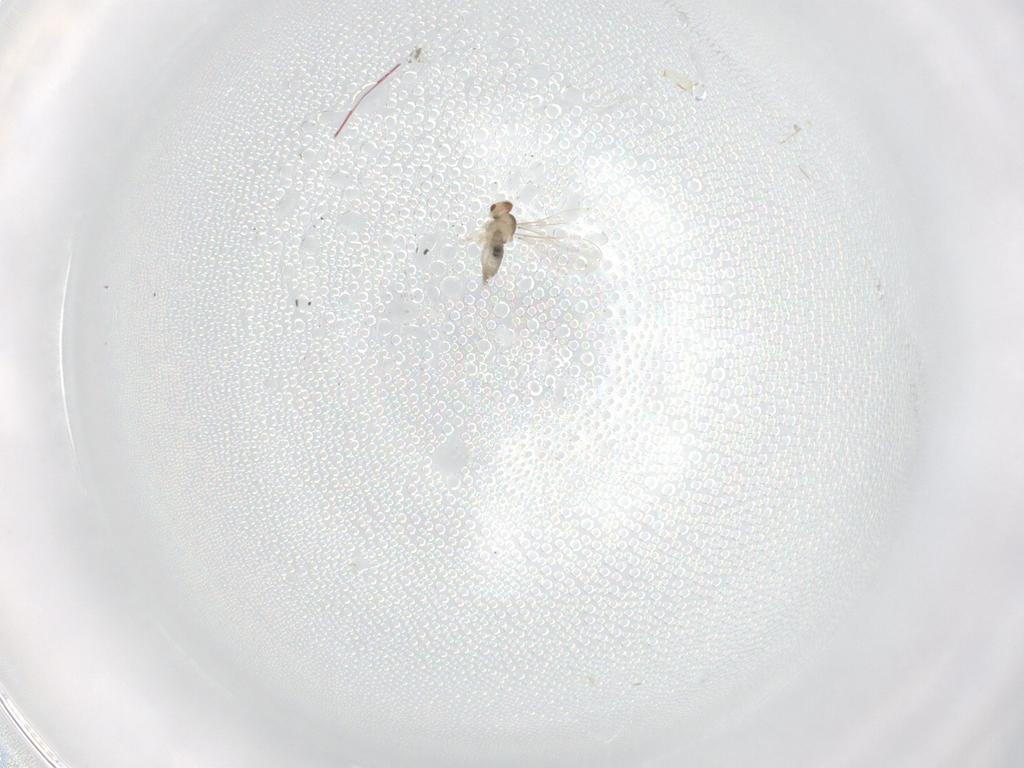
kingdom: Animalia
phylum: Arthropoda
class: Insecta
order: Diptera
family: Cecidomyiidae
